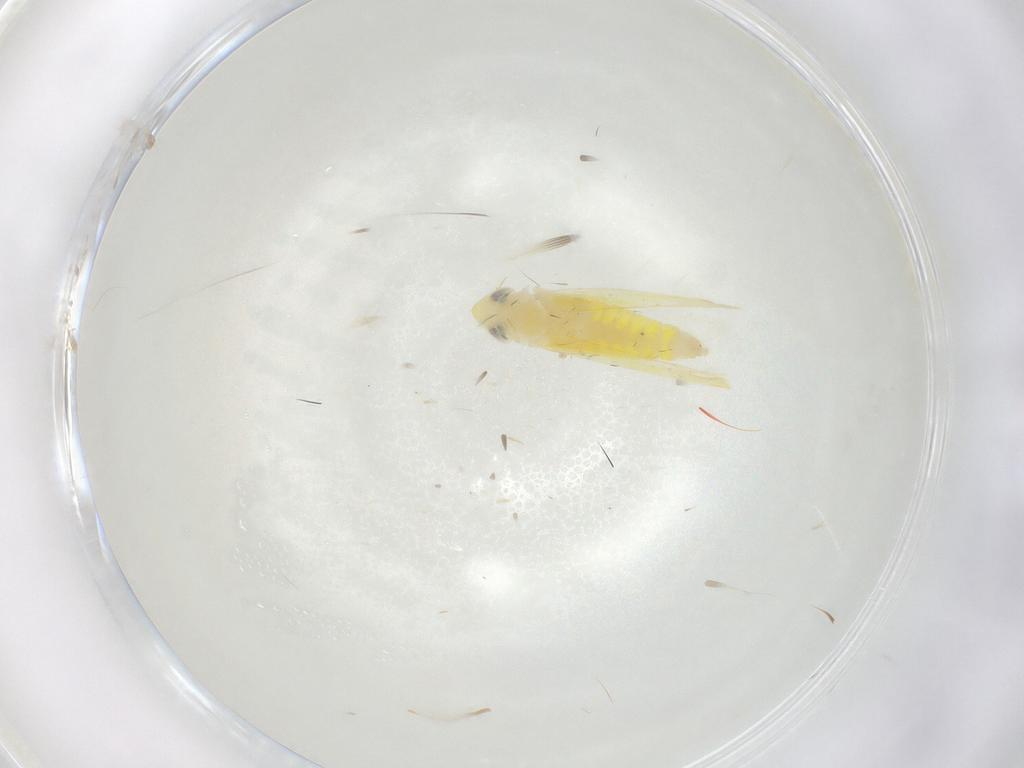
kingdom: Animalia
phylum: Arthropoda
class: Insecta
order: Hemiptera
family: Cicadellidae
